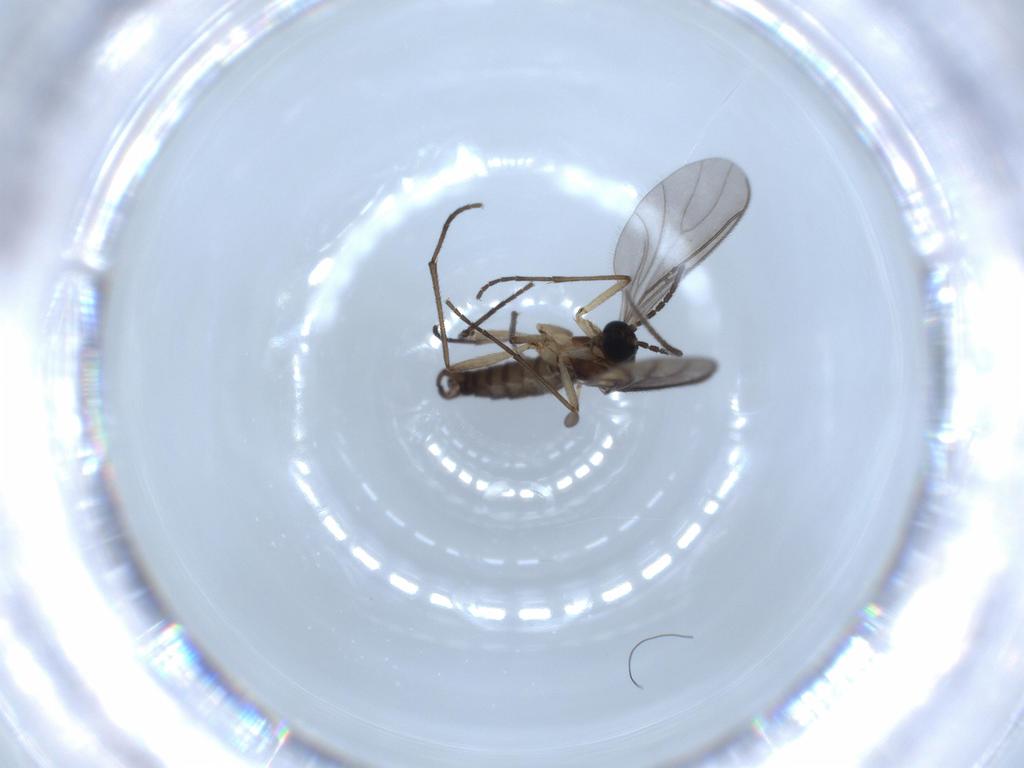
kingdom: Animalia
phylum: Arthropoda
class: Insecta
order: Diptera
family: Sciaridae
